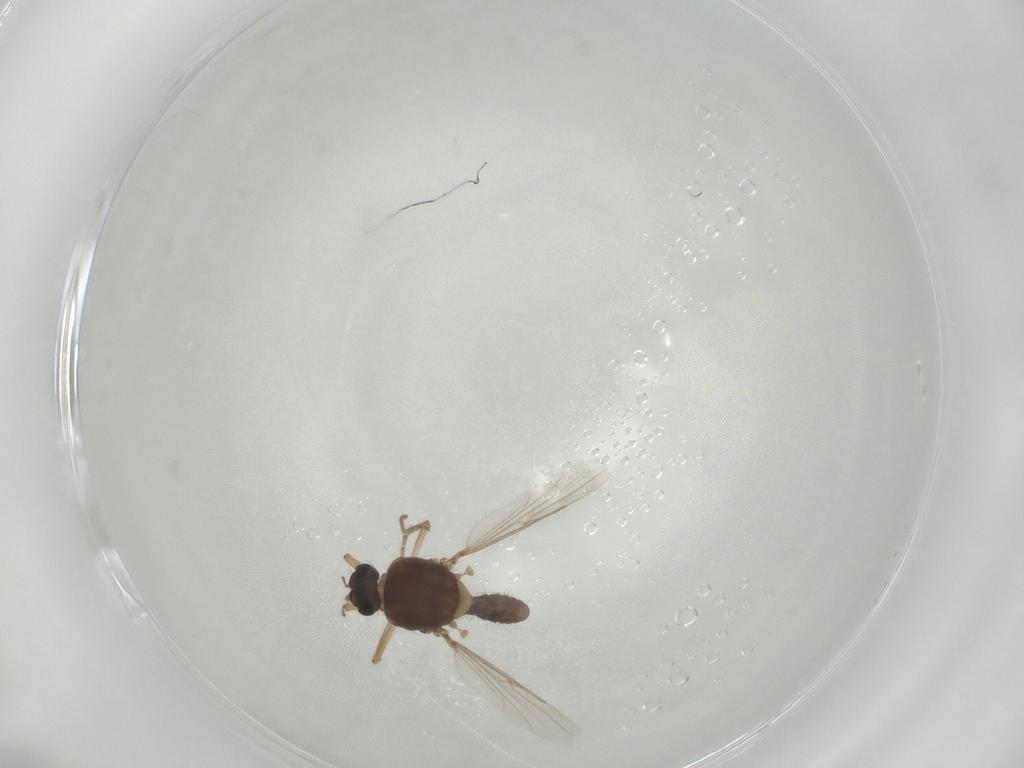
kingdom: Animalia
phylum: Arthropoda
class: Insecta
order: Diptera
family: Ceratopogonidae
